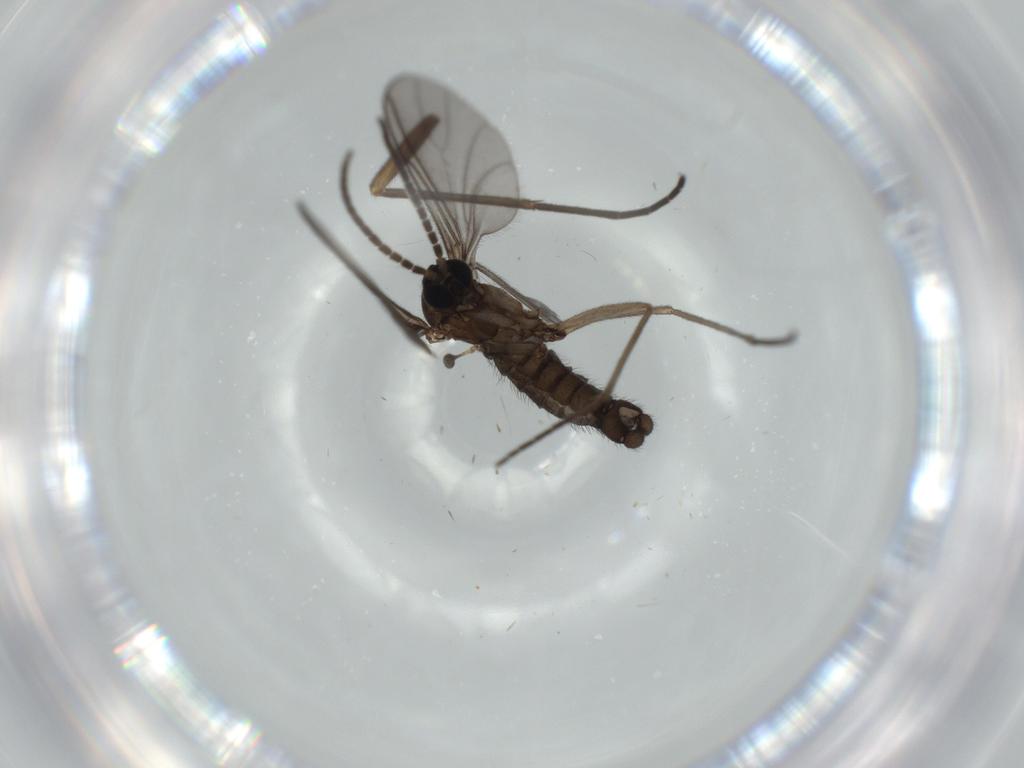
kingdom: Animalia
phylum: Arthropoda
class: Insecta
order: Diptera
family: Sciaridae
